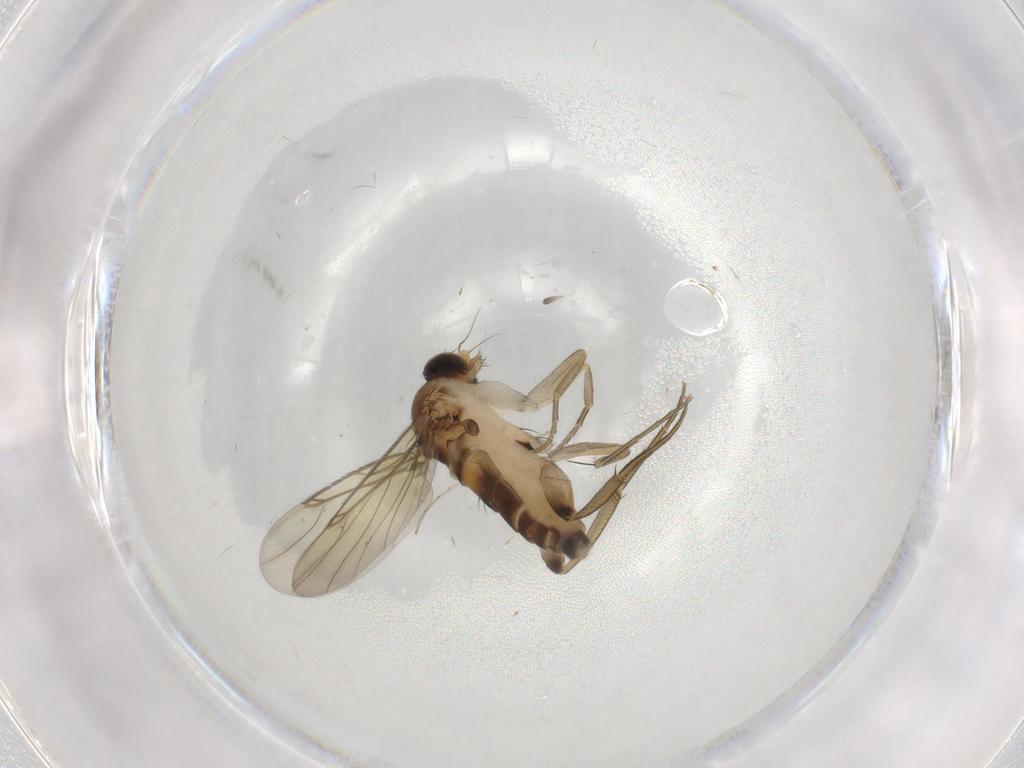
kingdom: Animalia
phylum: Arthropoda
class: Insecta
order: Diptera
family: Phoridae
